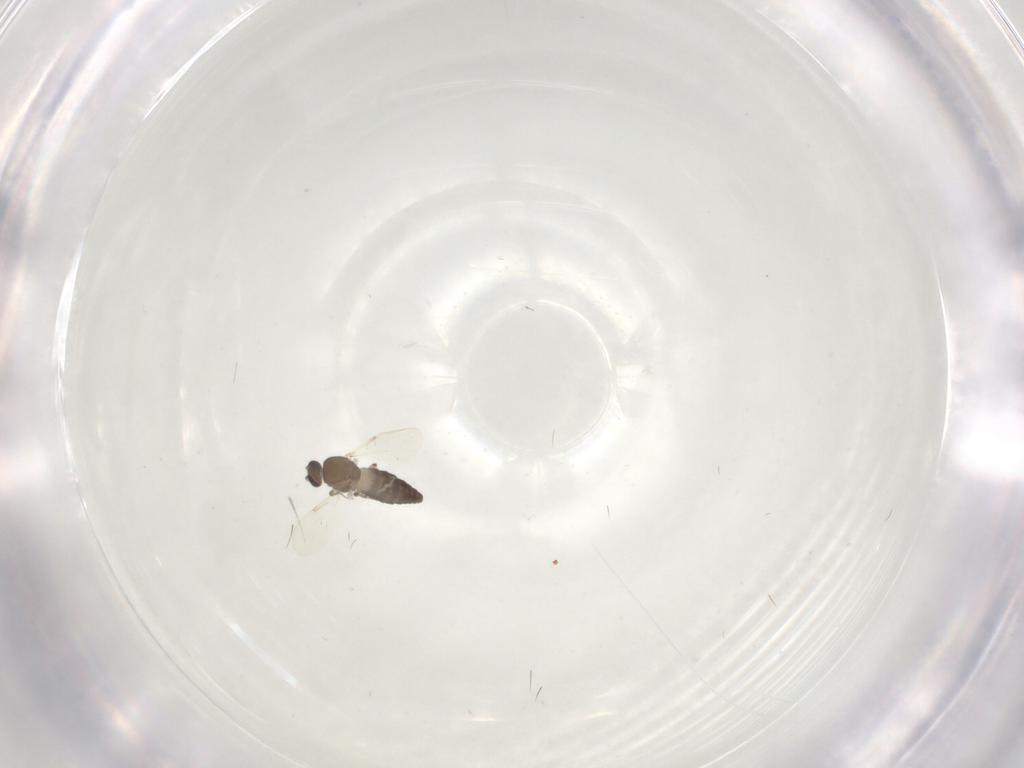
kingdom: Animalia
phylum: Arthropoda
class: Insecta
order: Diptera
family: Ceratopogonidae
